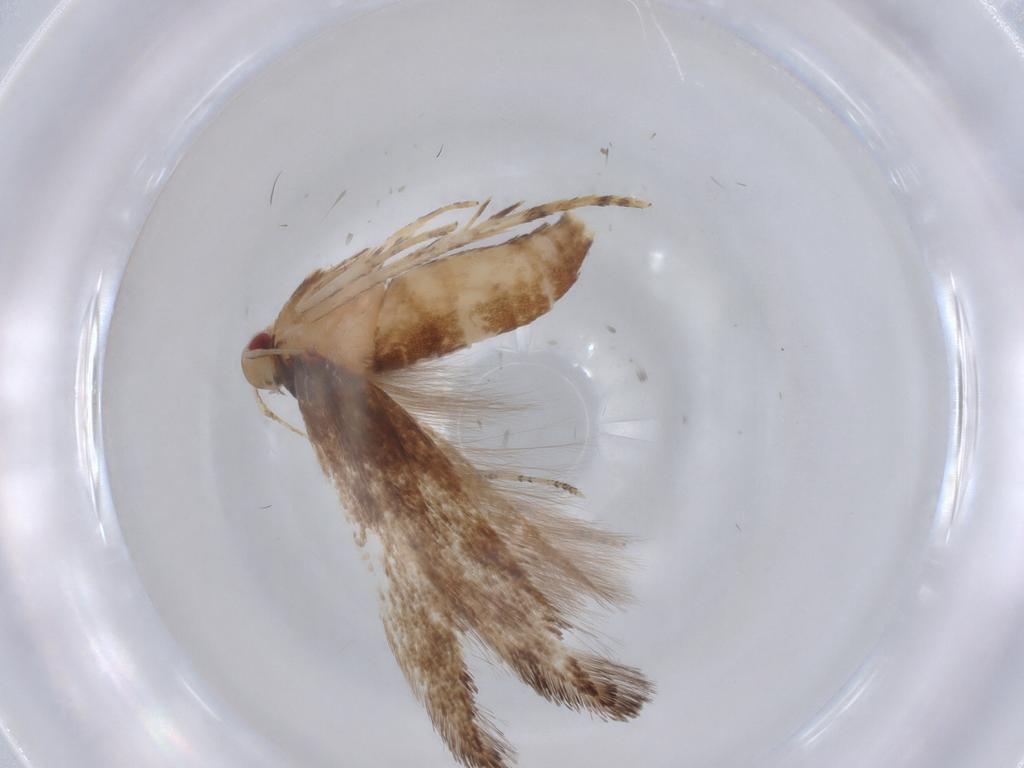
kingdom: Animalia
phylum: Arthropoda
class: Insecta
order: Lepidoptera
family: Cosmopterigidae
